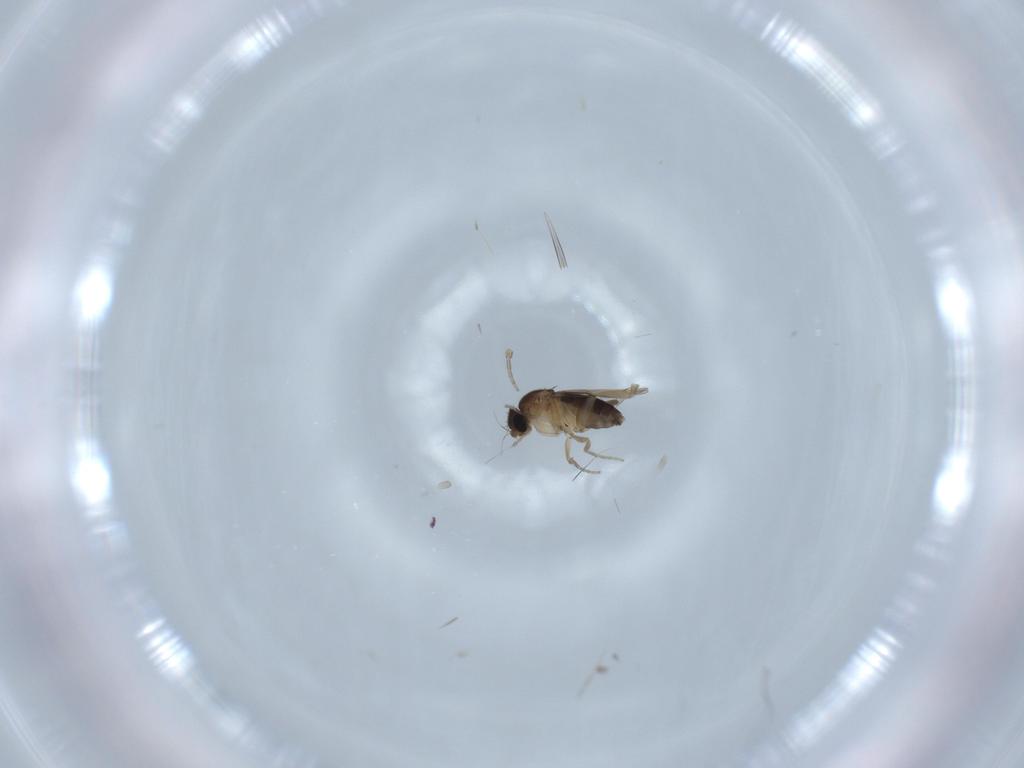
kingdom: Animalia
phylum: Arthropoda
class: Insecta
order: Diptera
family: Phoridae
